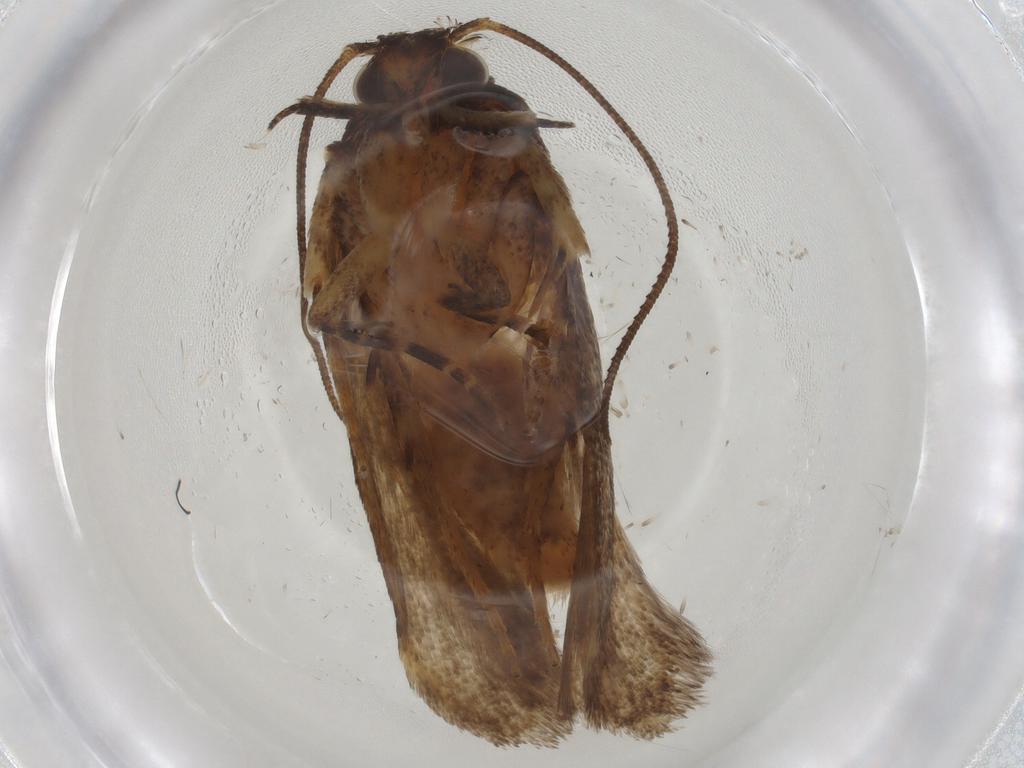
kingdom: Animalia
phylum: Arthropoda
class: Insecta
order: Lepidoptera
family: Gelechiidae
